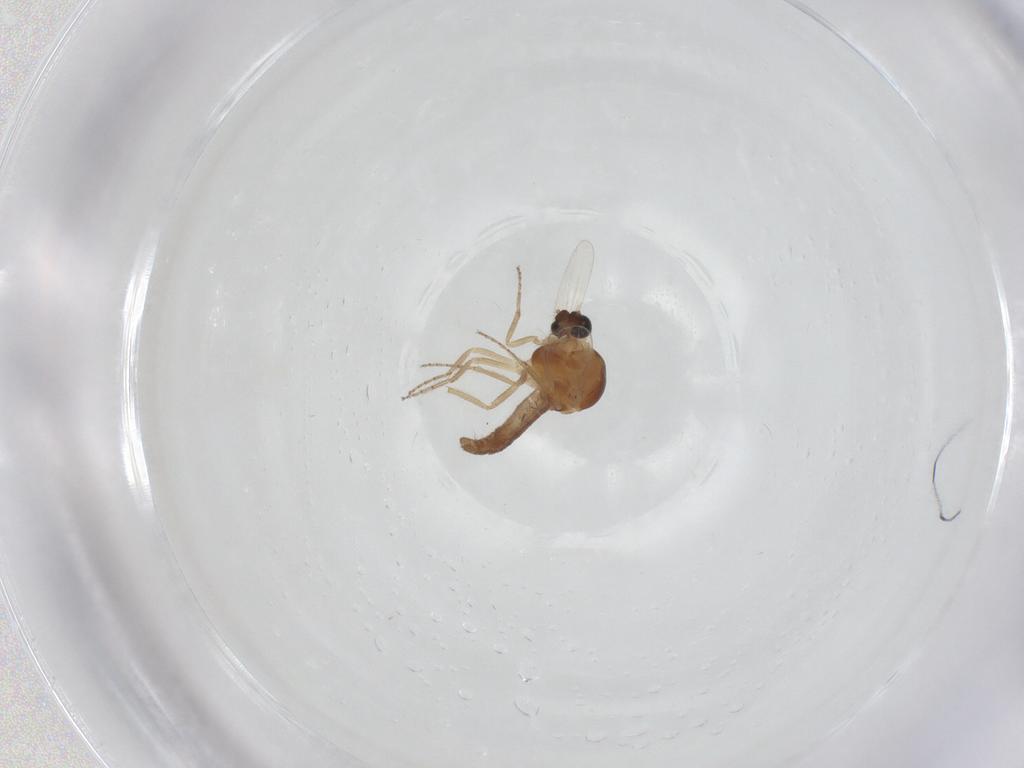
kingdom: Animalia
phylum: Arthropoda
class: Insecta
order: Diptera
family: Ceratopogonidae
